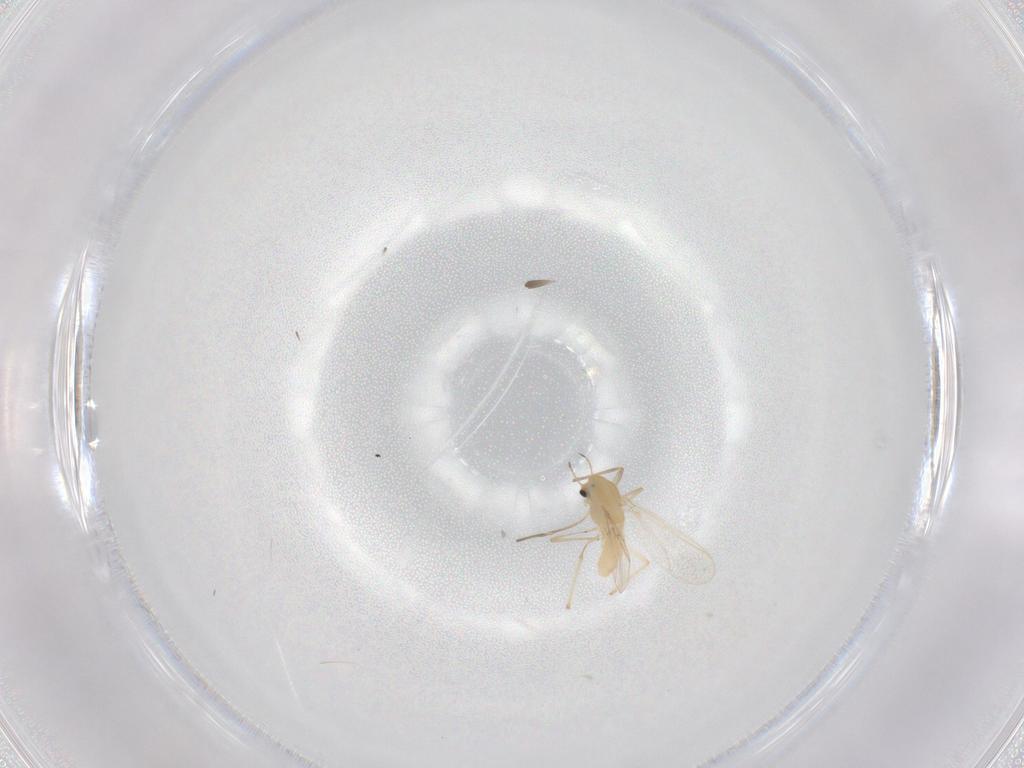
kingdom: Animalia
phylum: Arthropoda
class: Insecta
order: Diptera
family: Chironomidae
